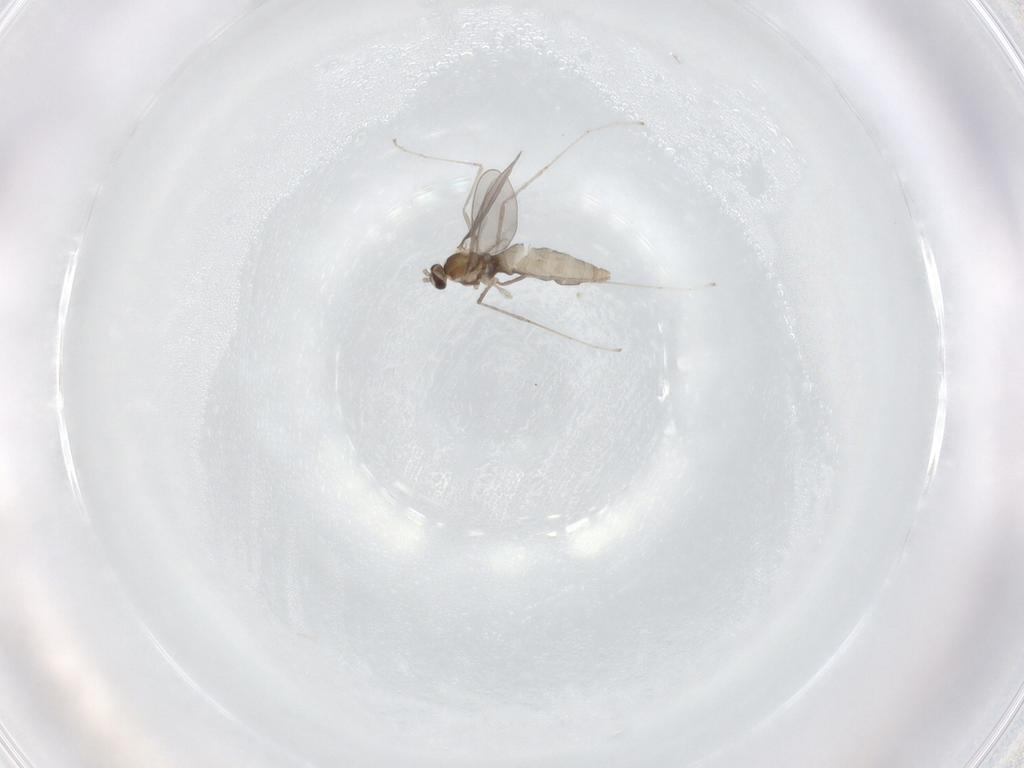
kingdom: Animalia
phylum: Arthropoda
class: Insecta
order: Diptera
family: Cecidomyiidae
